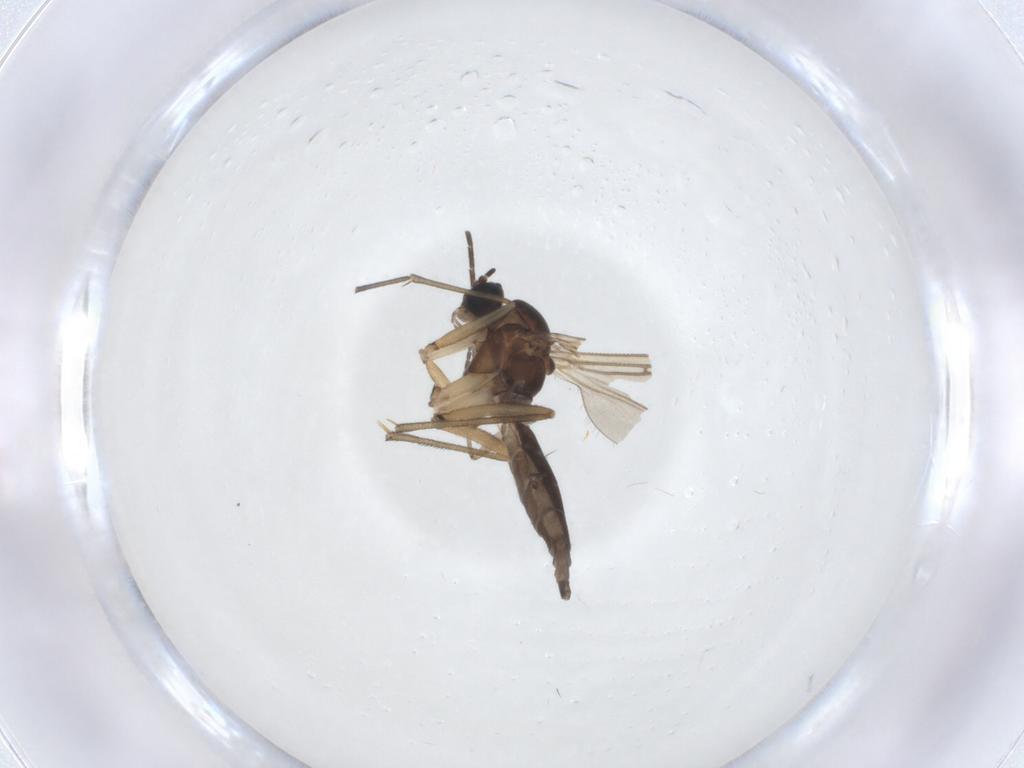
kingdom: Animalia
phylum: Arthropoda
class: Insecta
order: Diptera
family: Sciaridae
